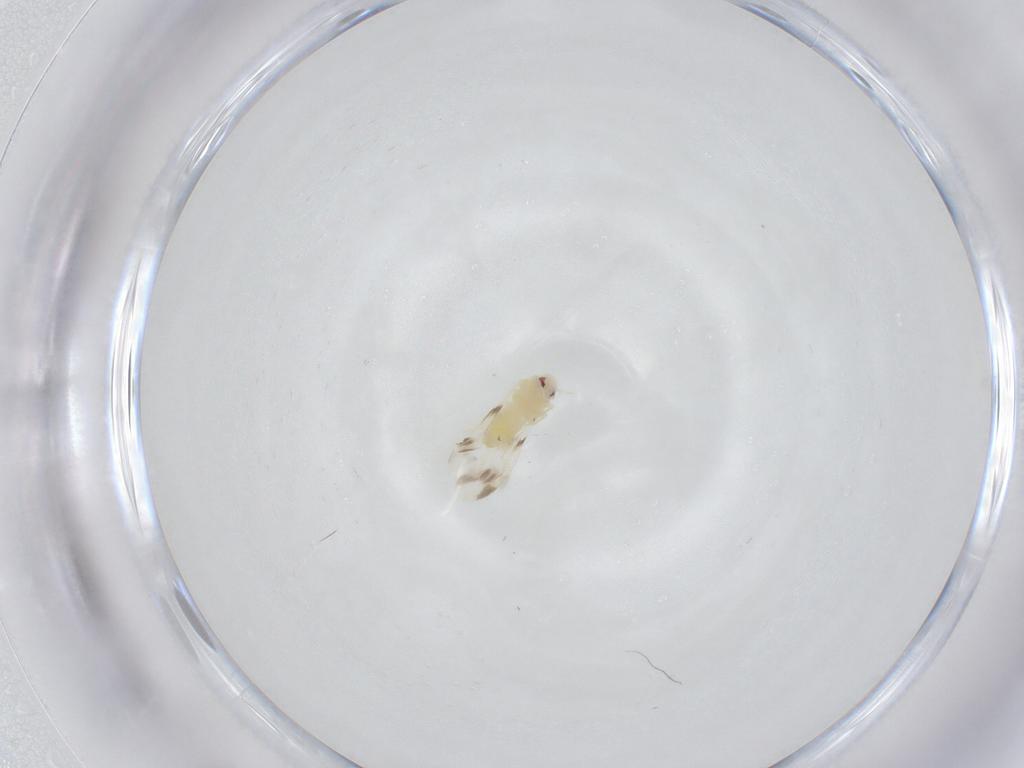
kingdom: Animalia
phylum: Arthropoda
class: Insecta
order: Hemiptera
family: Aleyrodidae
